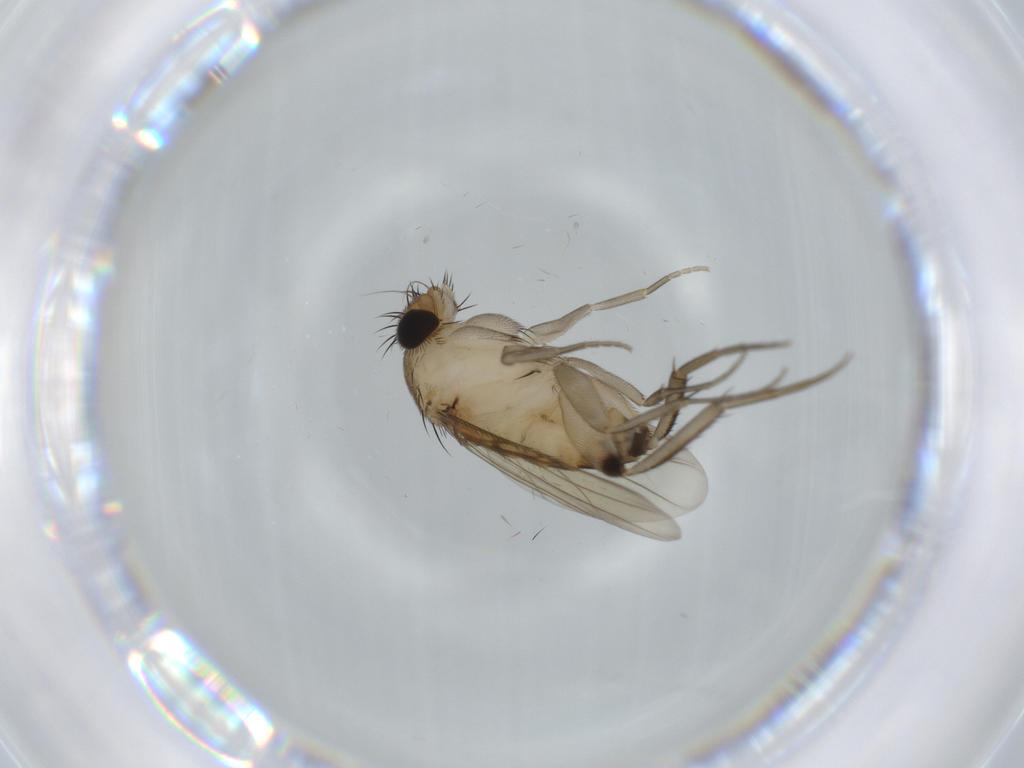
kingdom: Animalia
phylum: Arthropoda
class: Insecta
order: Diptera
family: Phoridae
